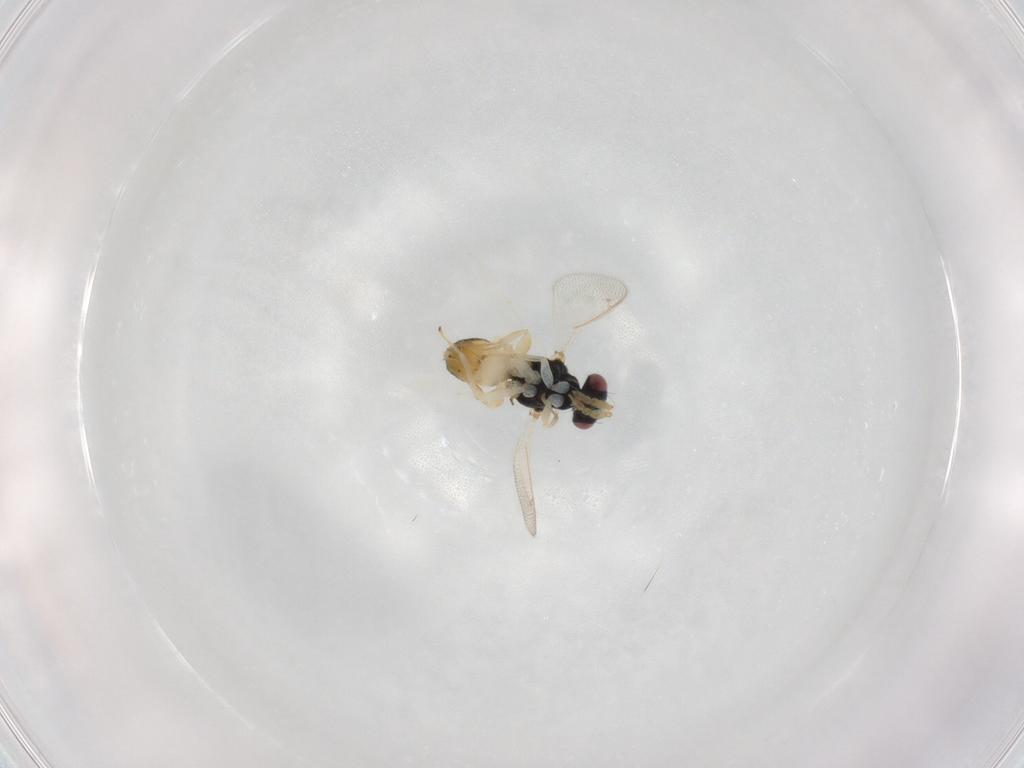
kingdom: Animalia
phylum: Arthropoda
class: Insecta
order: Hymenoptera
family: Eulophidae
